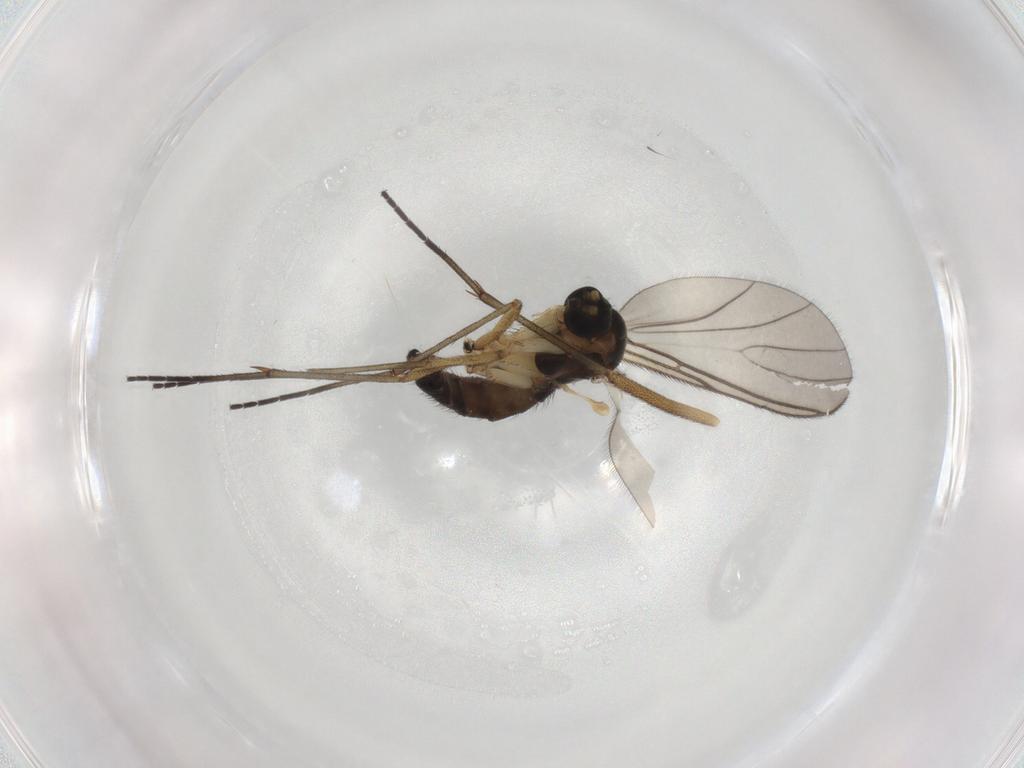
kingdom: Animalia
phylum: Arthropoda
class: Insecta
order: Diptera
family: Sciaridae
